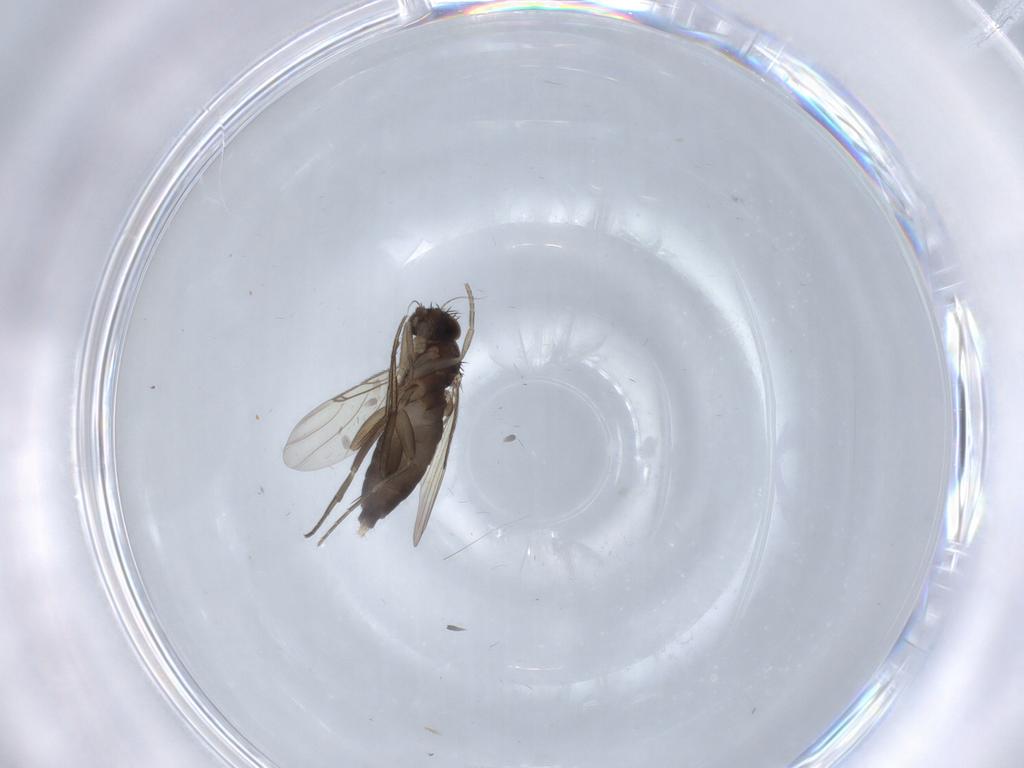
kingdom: Animalia
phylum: Arthropoda
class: Insecta
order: Diptera
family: Phoridae
